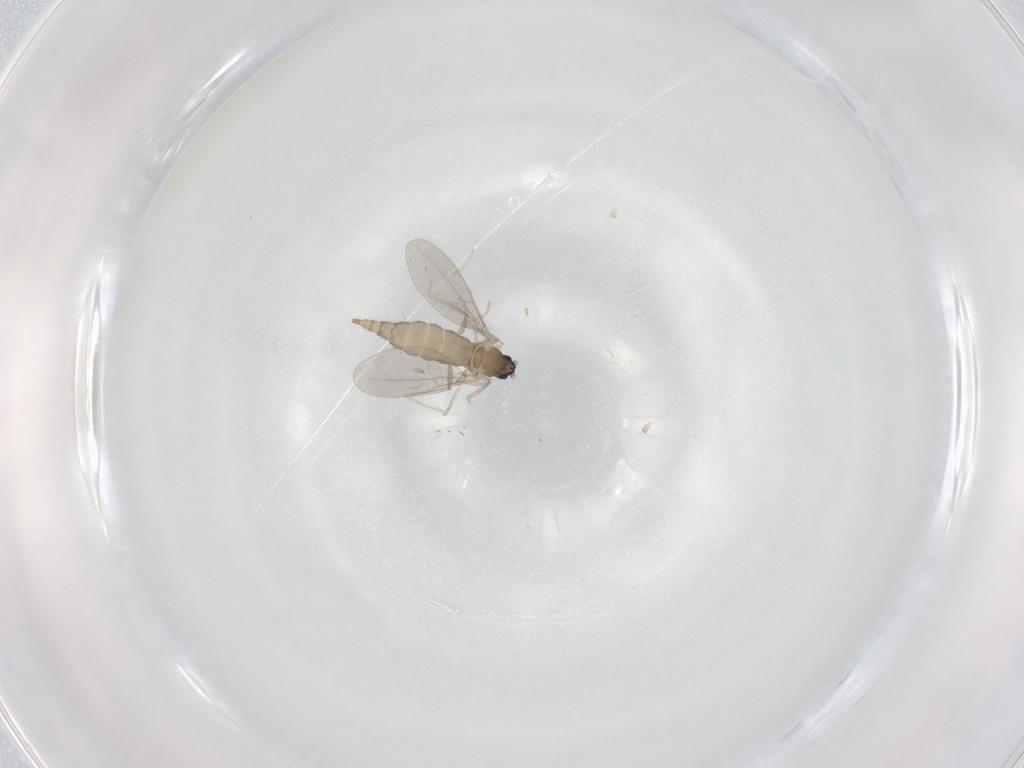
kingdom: Animalia
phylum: Arthropoda
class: Insecta
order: Diptera
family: Cecidomyiidae
